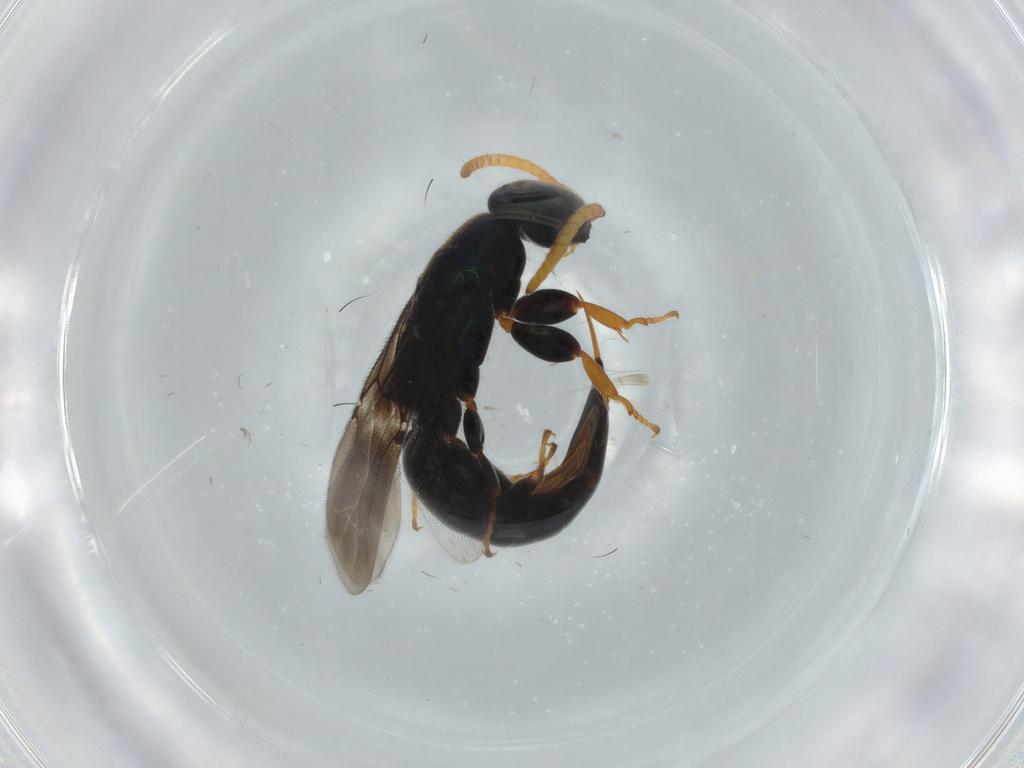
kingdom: Animalia
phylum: Arthropoda
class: Insecta
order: Hymenoptera
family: Bethylidae
